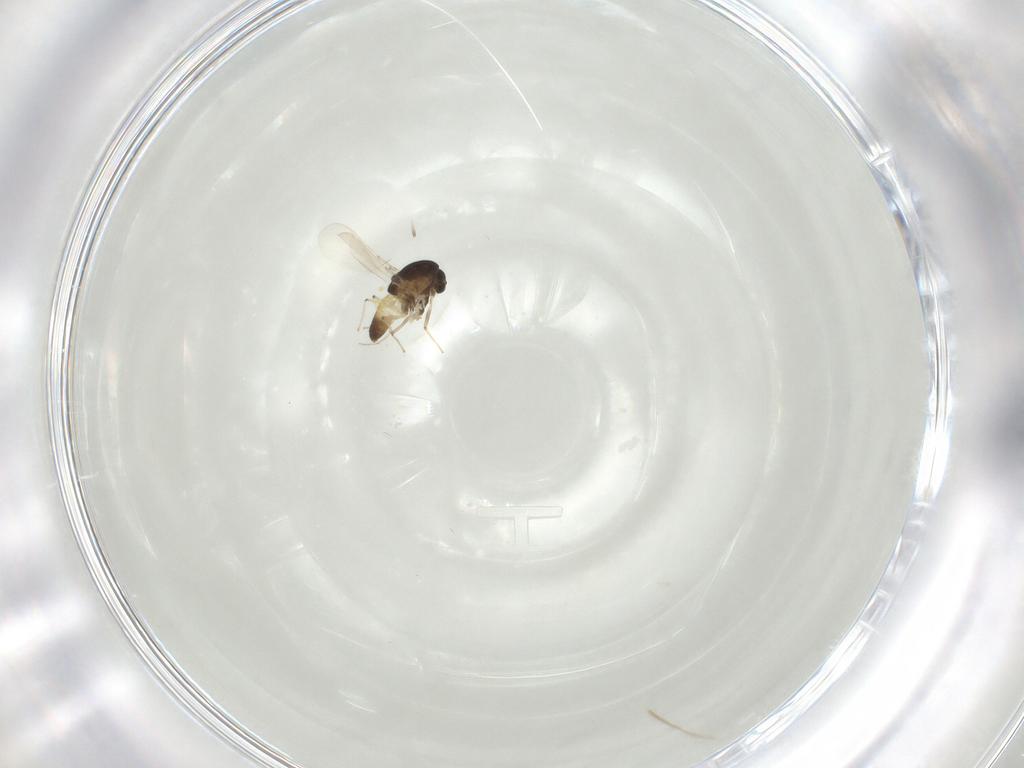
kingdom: Animalia
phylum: Arthropoda
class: Insecta
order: Diptera
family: Chironomidae
